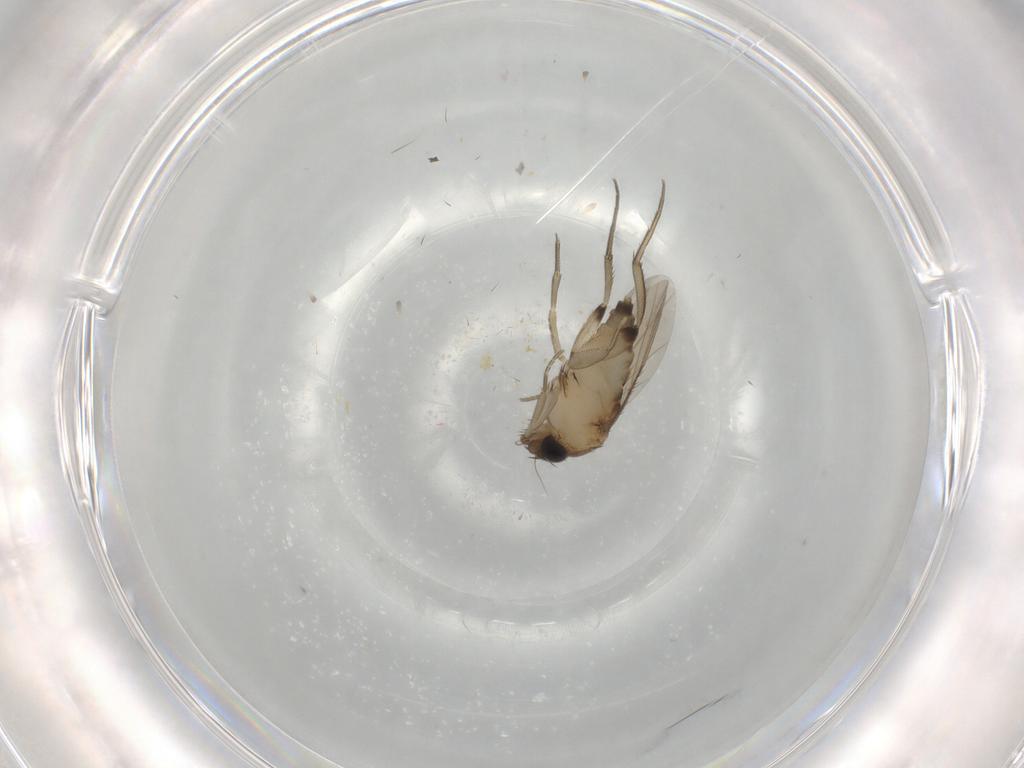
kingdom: Animalia
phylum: Arthropoda
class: Insecta
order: Diptera
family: Phoridae
